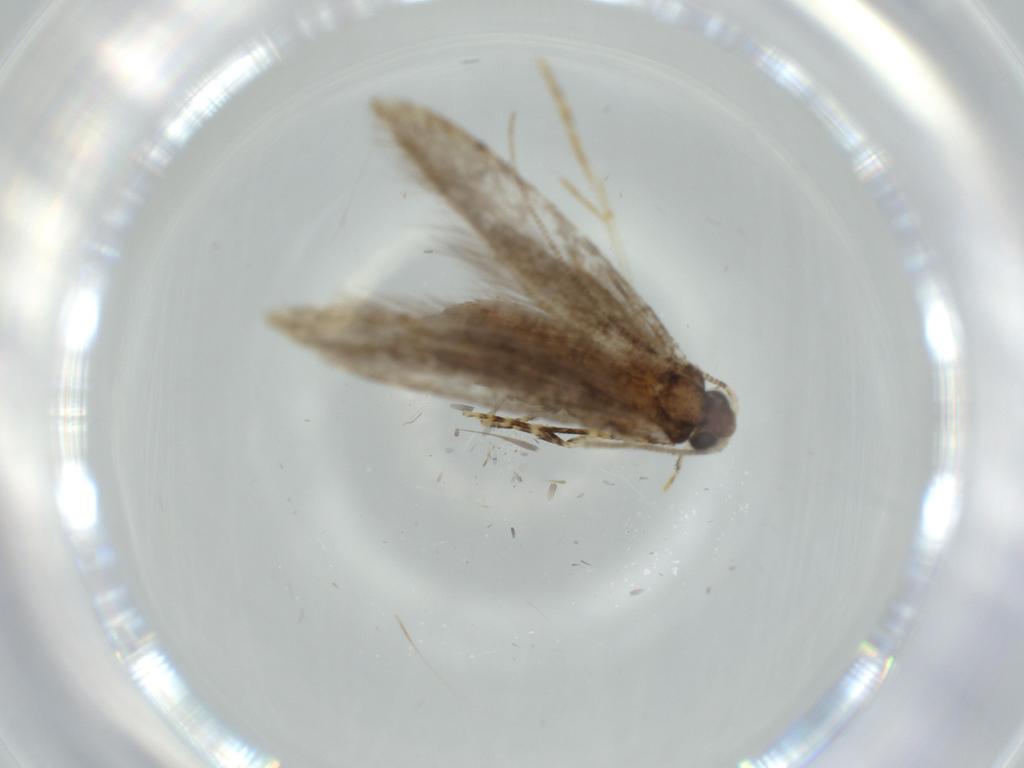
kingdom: Animalia
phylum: Arthropoda
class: Insecta
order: Lepidoptera
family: Tineidae
